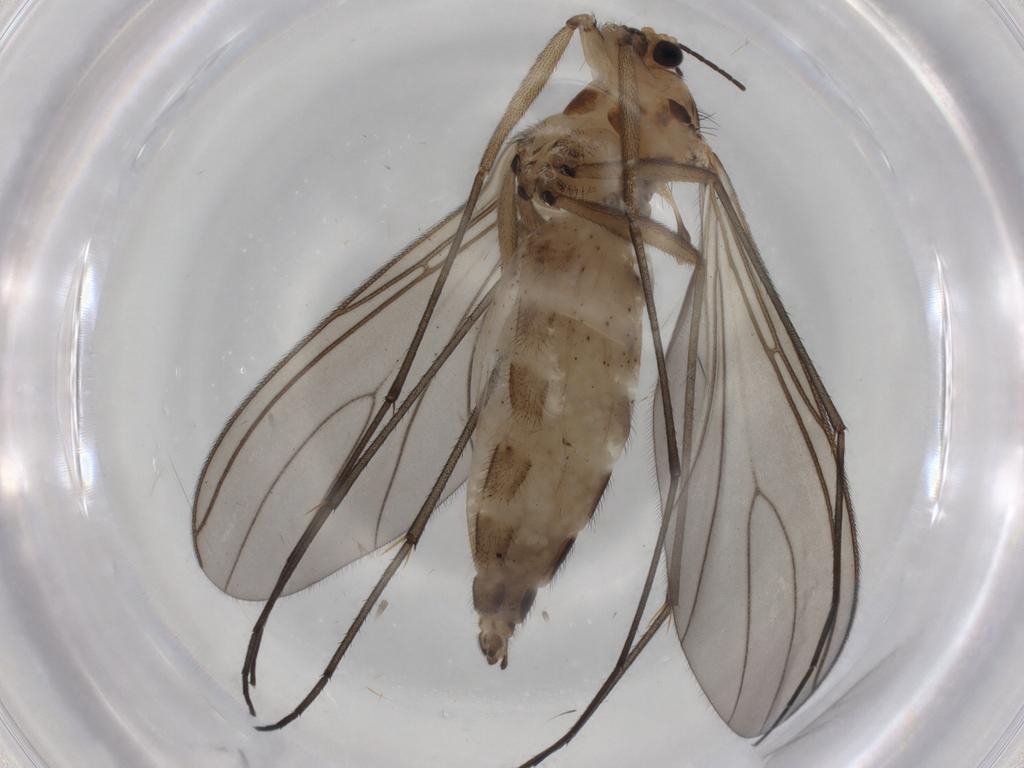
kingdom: Animalia
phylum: Arthropoda
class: Insecta
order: Diptera
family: Sciaridae
